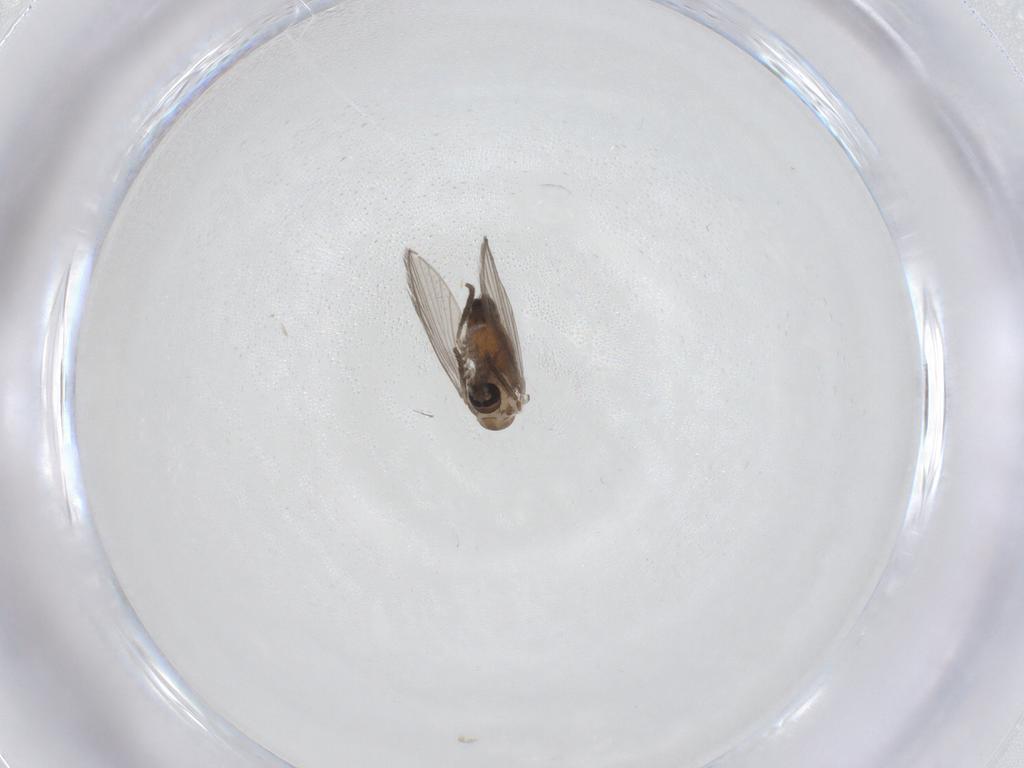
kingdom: Animalia
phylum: Arthropoda
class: Insecta
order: Diptera
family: Psychodidae
